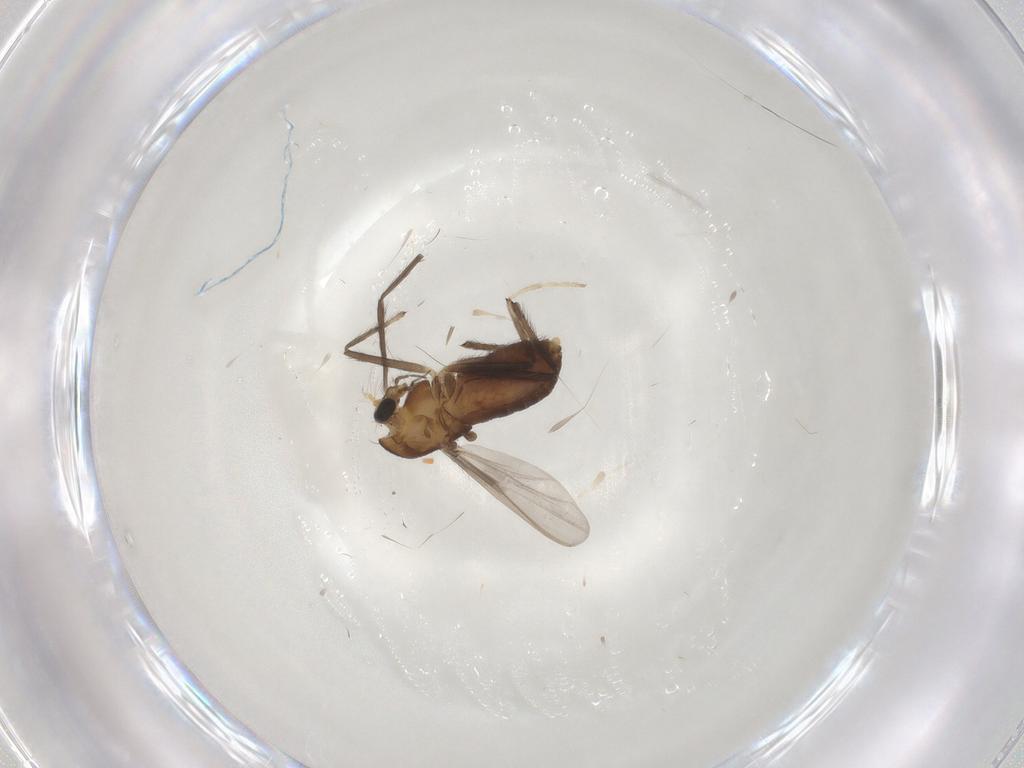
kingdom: Animalia
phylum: Arthropoda
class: Insecta
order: Diptera
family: Chironomidae
